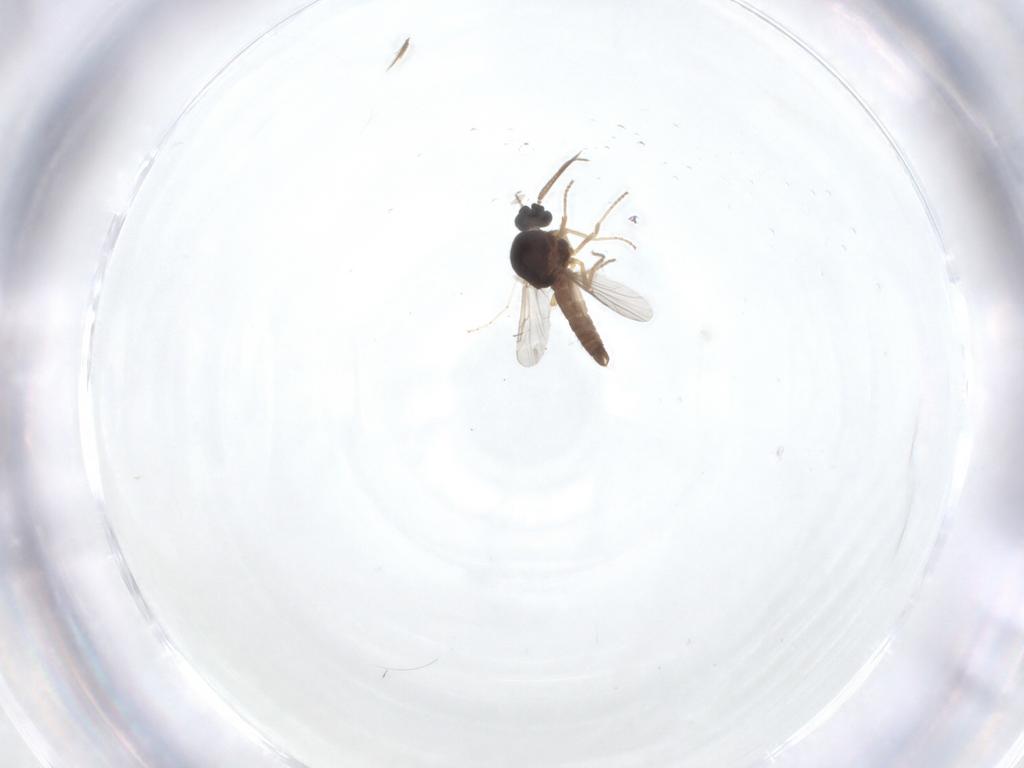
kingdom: Animalia
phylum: Arthropoda
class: Insecta
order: Diptera
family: Ceratopogonidae
